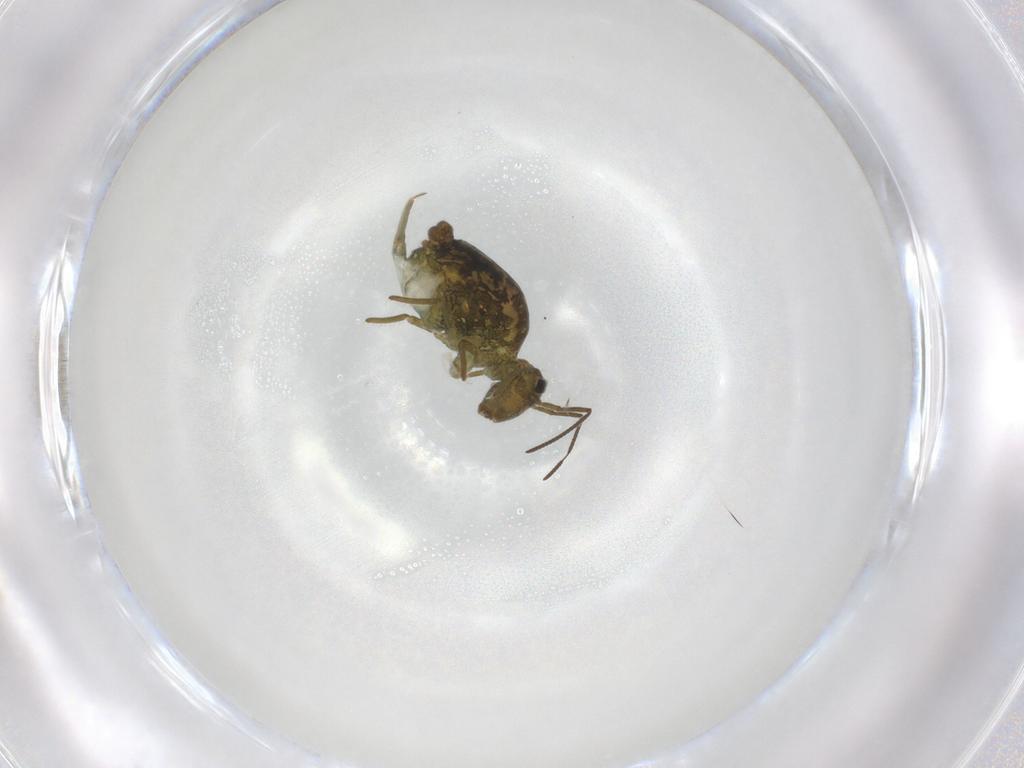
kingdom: Animalia
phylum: Arthropoda
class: Collembola
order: Symphypleona
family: Sminthuridae
